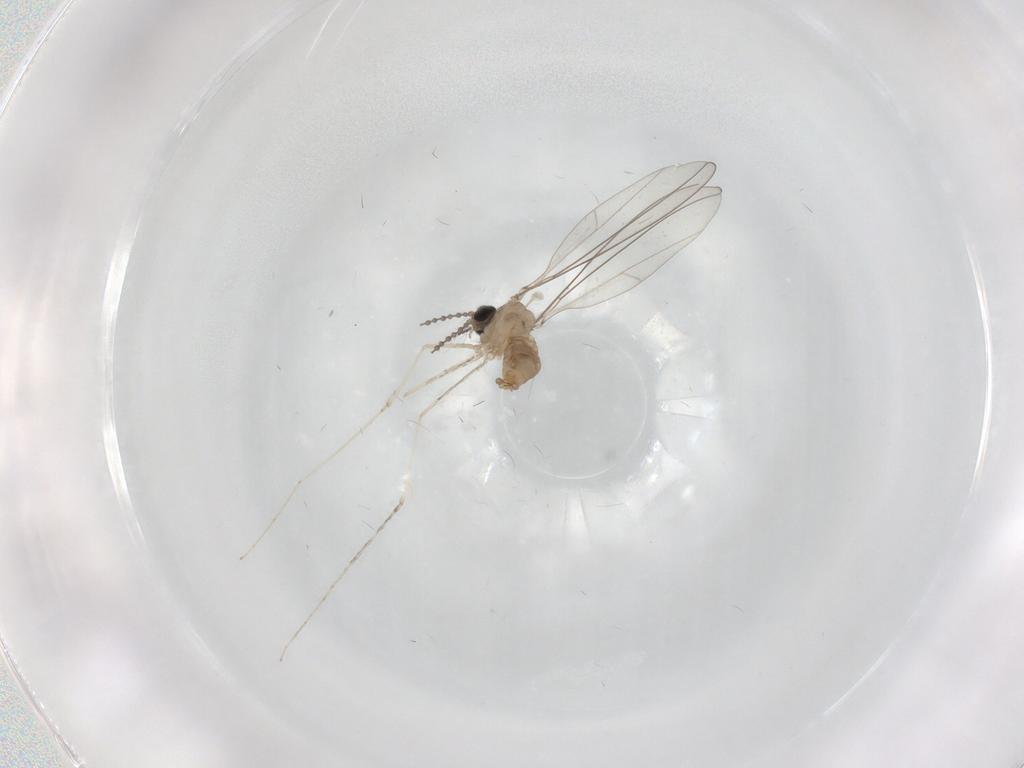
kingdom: Animalia
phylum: Arthropoda
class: Insecta
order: Diptera
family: Cecidomyiidae
